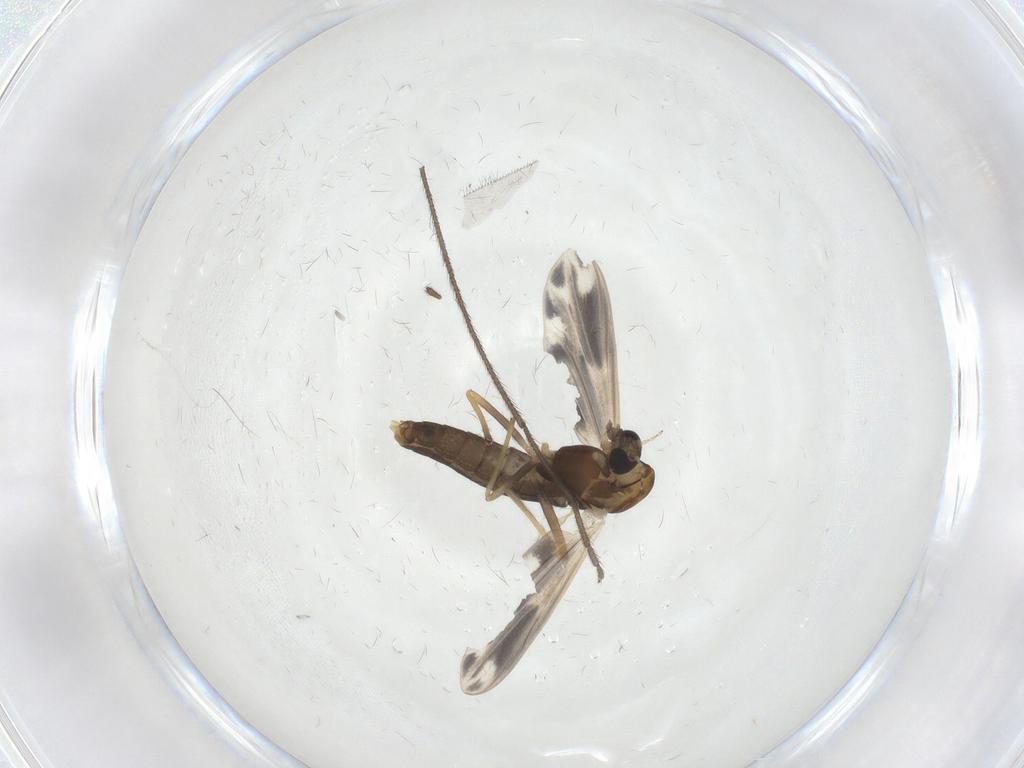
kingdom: Animalia
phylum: Arthropoda
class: Insecta
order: Diptera
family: Chironomidae
